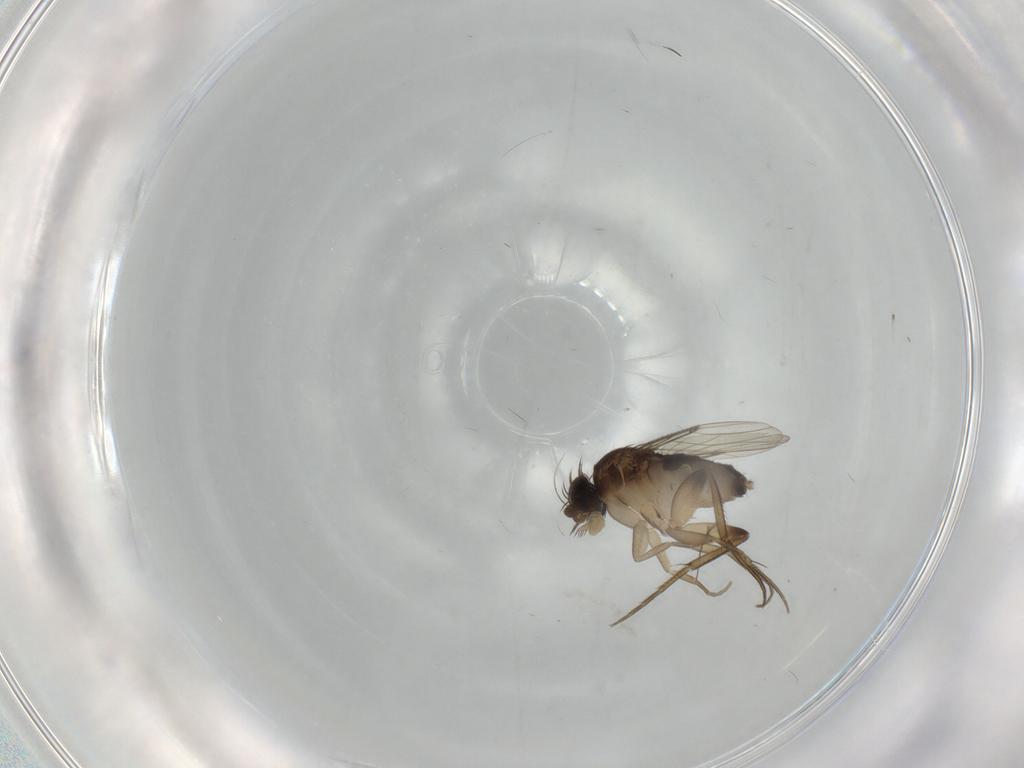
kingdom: Animalia
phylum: Arthropoda
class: Insecta
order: Diptera
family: Phoridae
